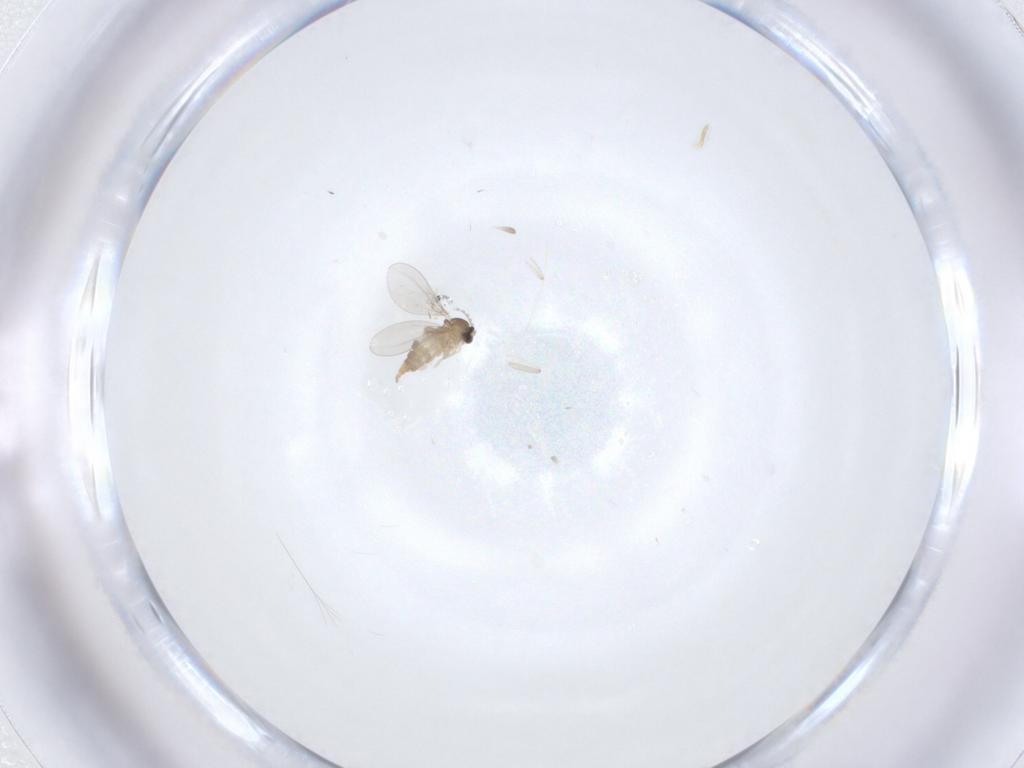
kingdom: Animalia
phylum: Arthropoda
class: Insecta
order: Diptera
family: Cecidomyiidae
